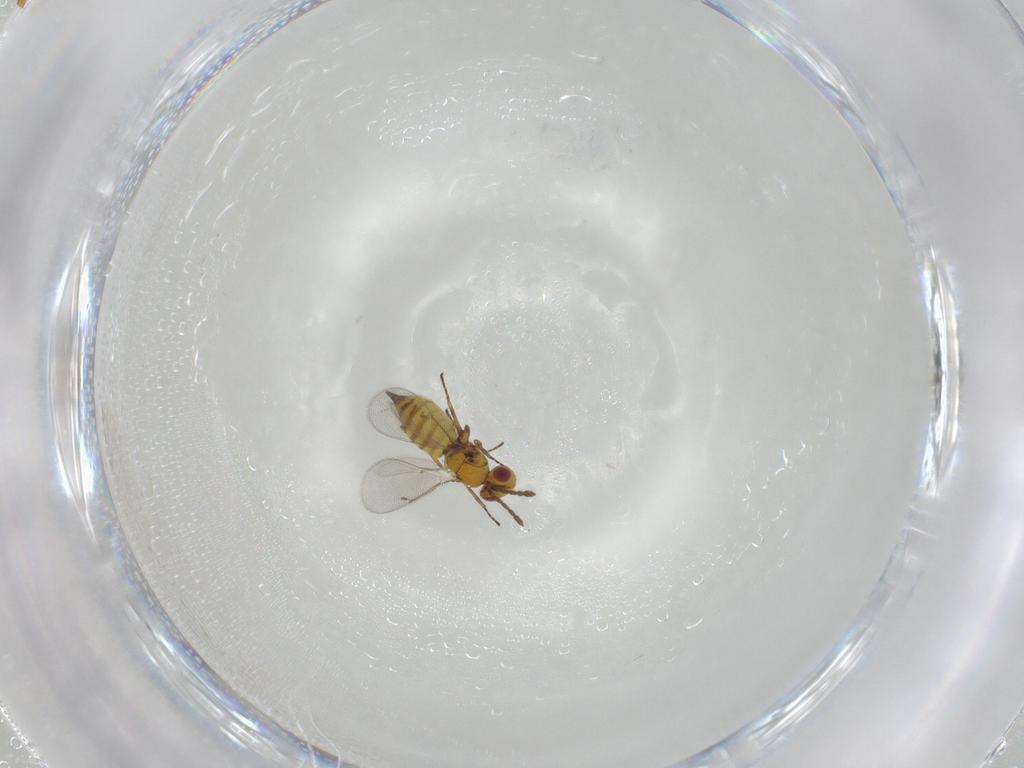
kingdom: Animalia
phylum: Arthropoda
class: Insecta
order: Hymenoptera
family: Eulophidae
